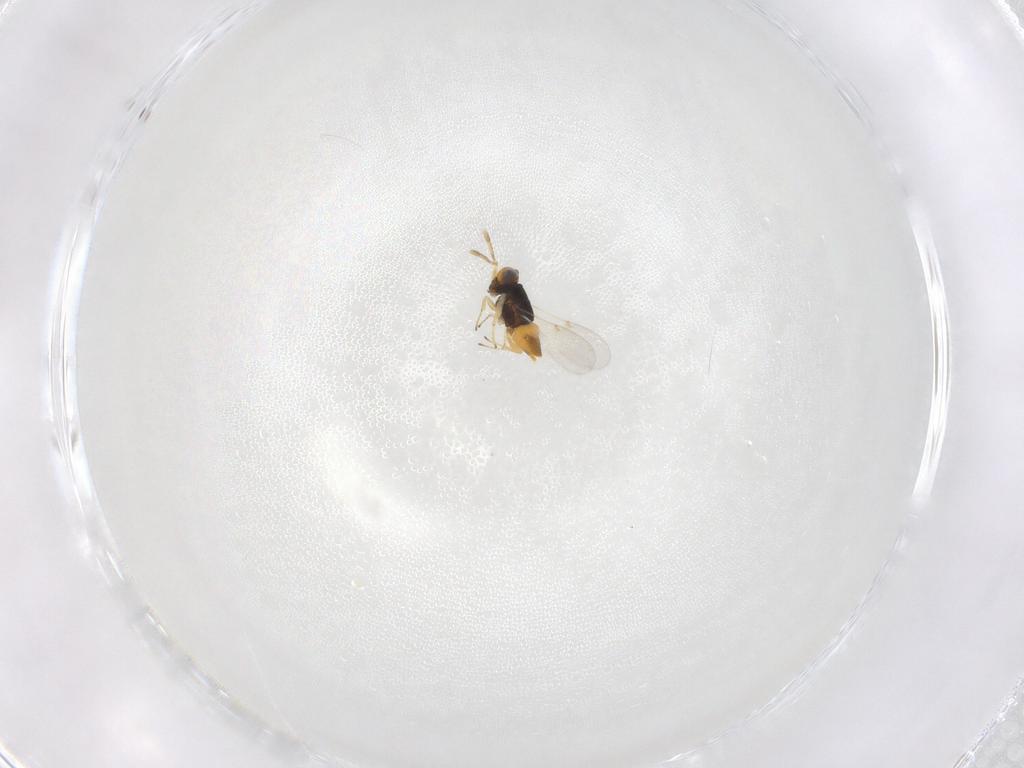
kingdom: Animalia
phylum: Arthropoda
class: Insecta
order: Hymenoptera
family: Encyrtidae
